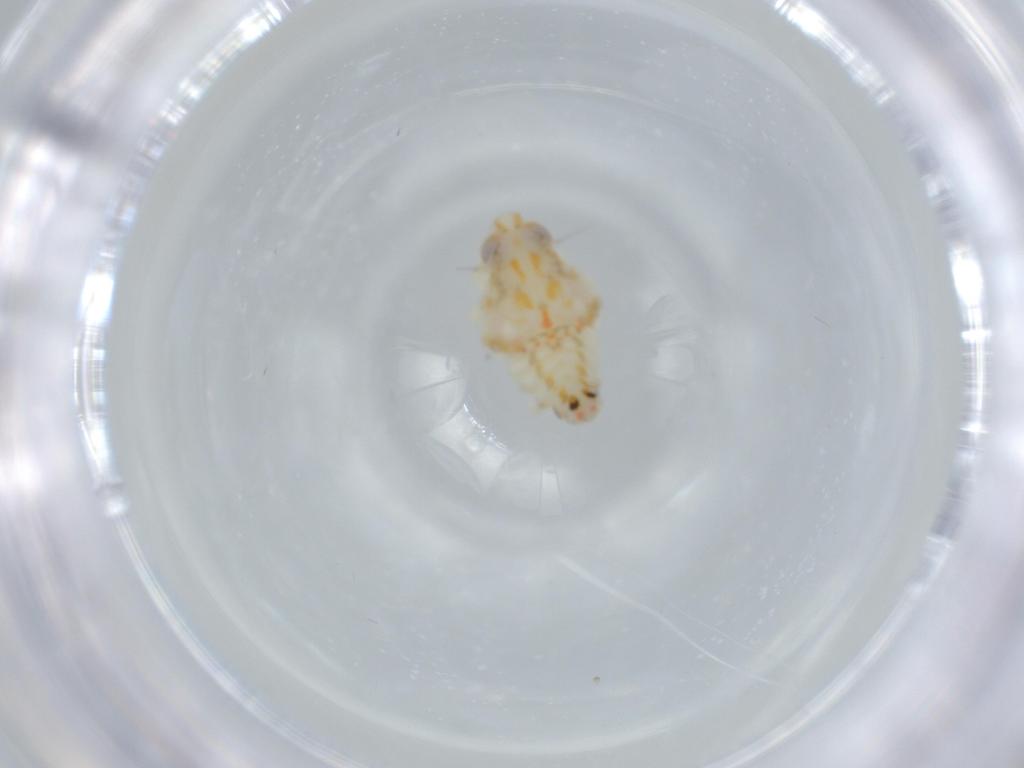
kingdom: Animalia
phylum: Arthropoda
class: Insecta
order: Hemiptera
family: Nogodinidae
